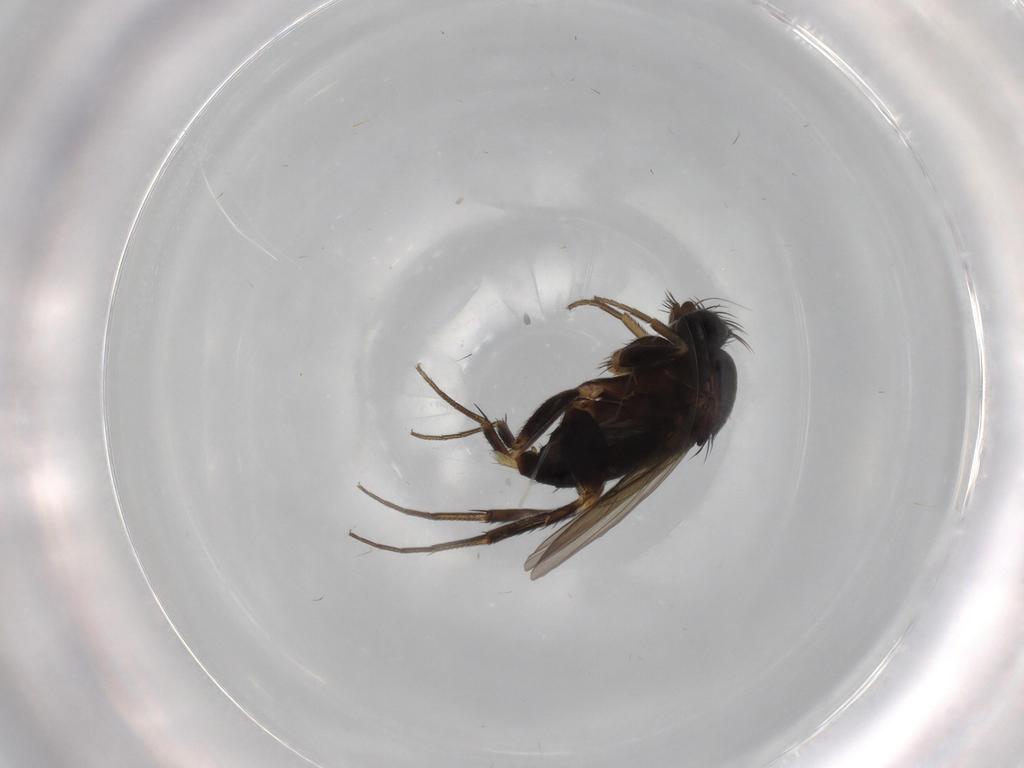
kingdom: Animalia
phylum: Arthropoda
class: Insecta
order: Diptera
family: Phoridae
